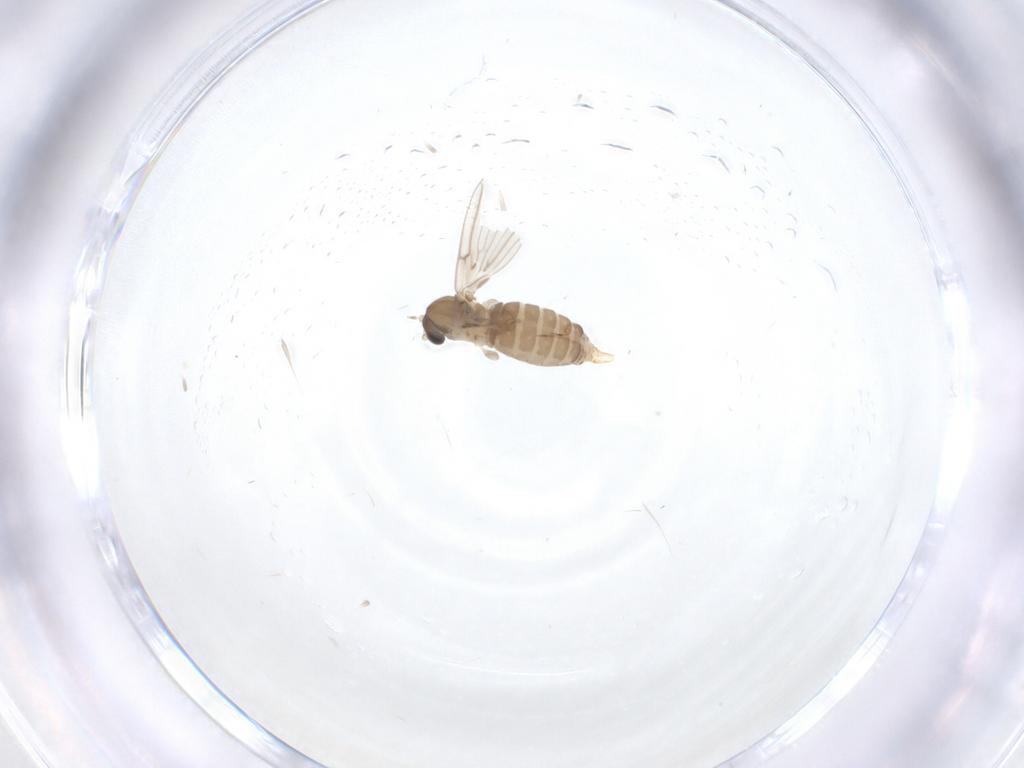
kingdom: Animalia
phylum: Arthropoda
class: Insecta
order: Diptera
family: Psychodidae
